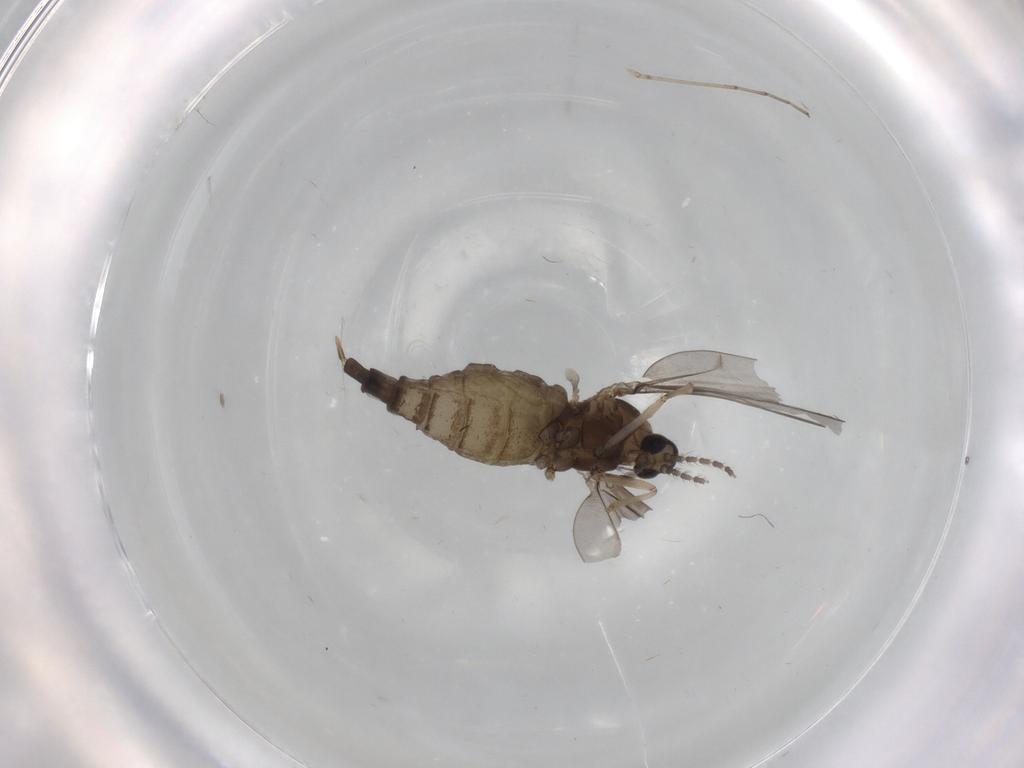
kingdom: Animalia
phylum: Arthropoda
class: Insecta
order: Diptera
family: Cecidomyiidae
